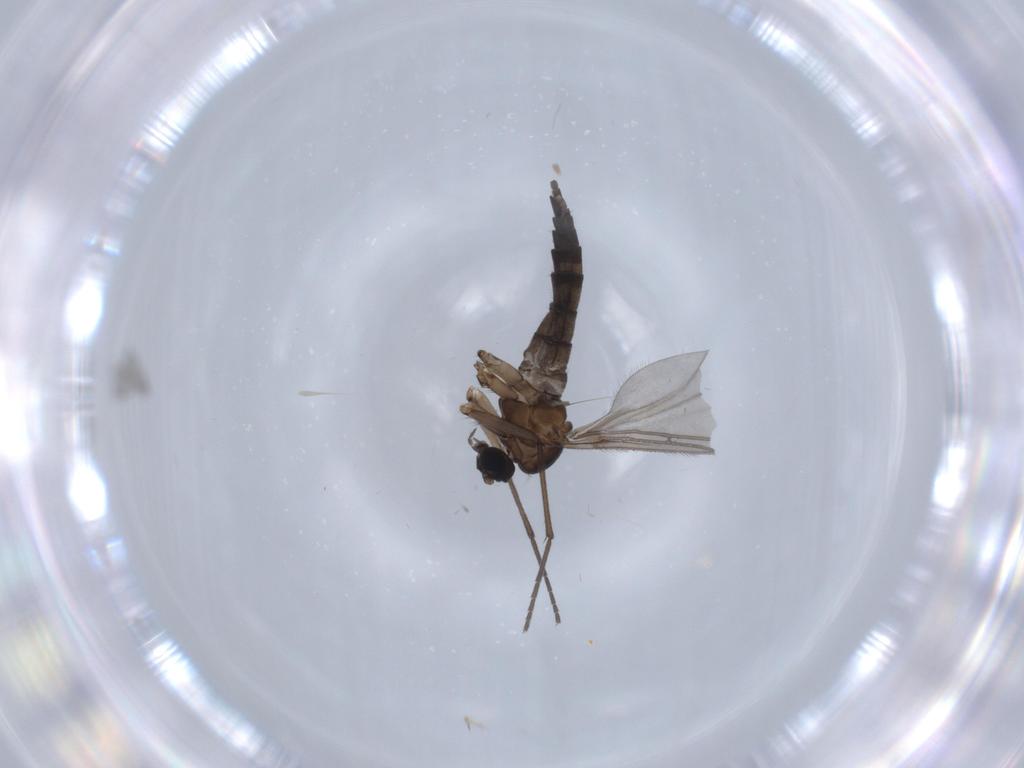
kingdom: Animalia
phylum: Arthropoda
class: Insecta
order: Diptera
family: Sciaridae
